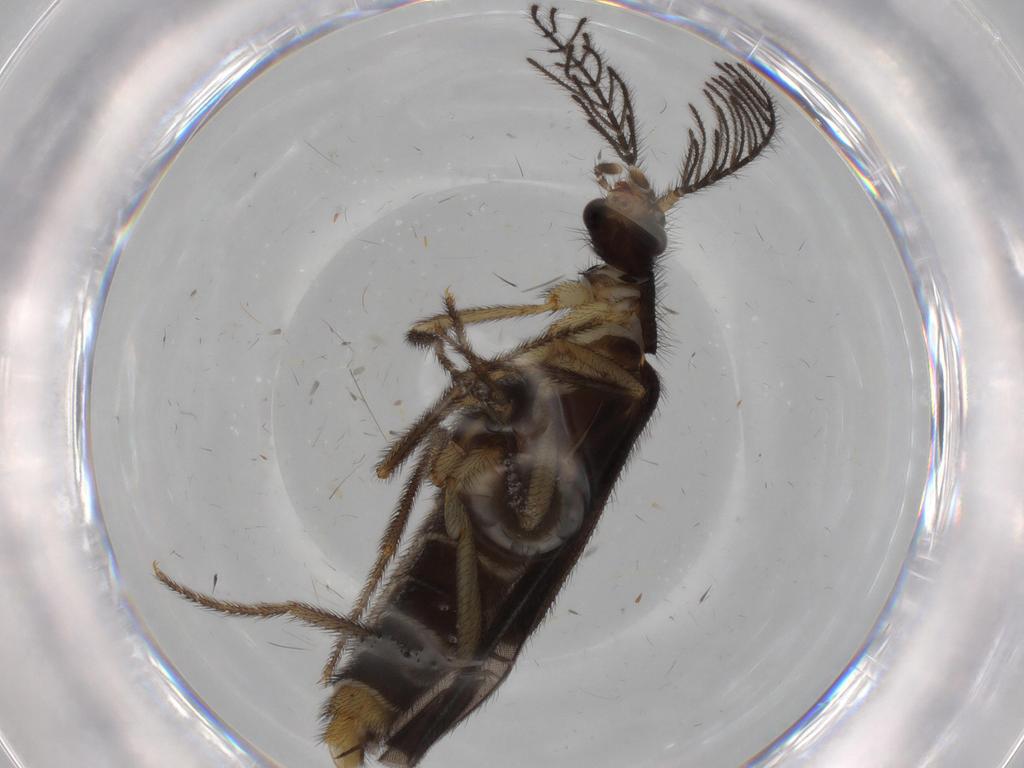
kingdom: Animalia
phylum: Arthropoda
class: Insecta
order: Coleoptera
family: Phengodidae
